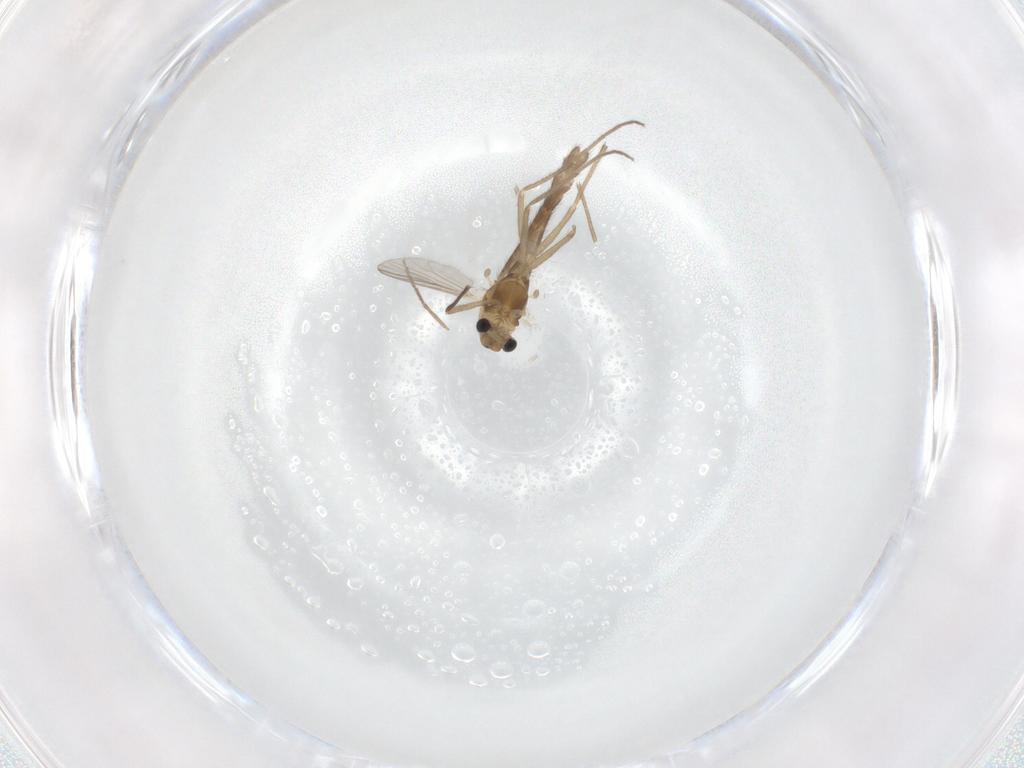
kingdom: Animalia
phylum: Arthropoda
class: Insecta
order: Diptera
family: Chironomidae
